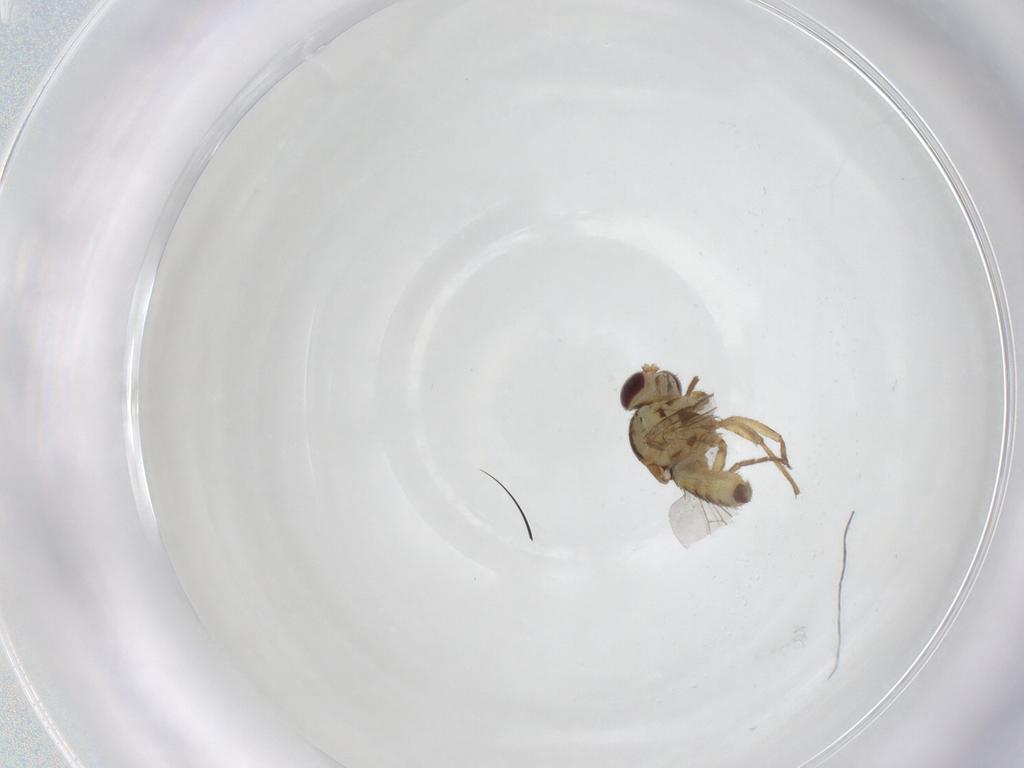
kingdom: Animalia
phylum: Arthropoda
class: Insecta
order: Diptera
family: Agromyzidae
